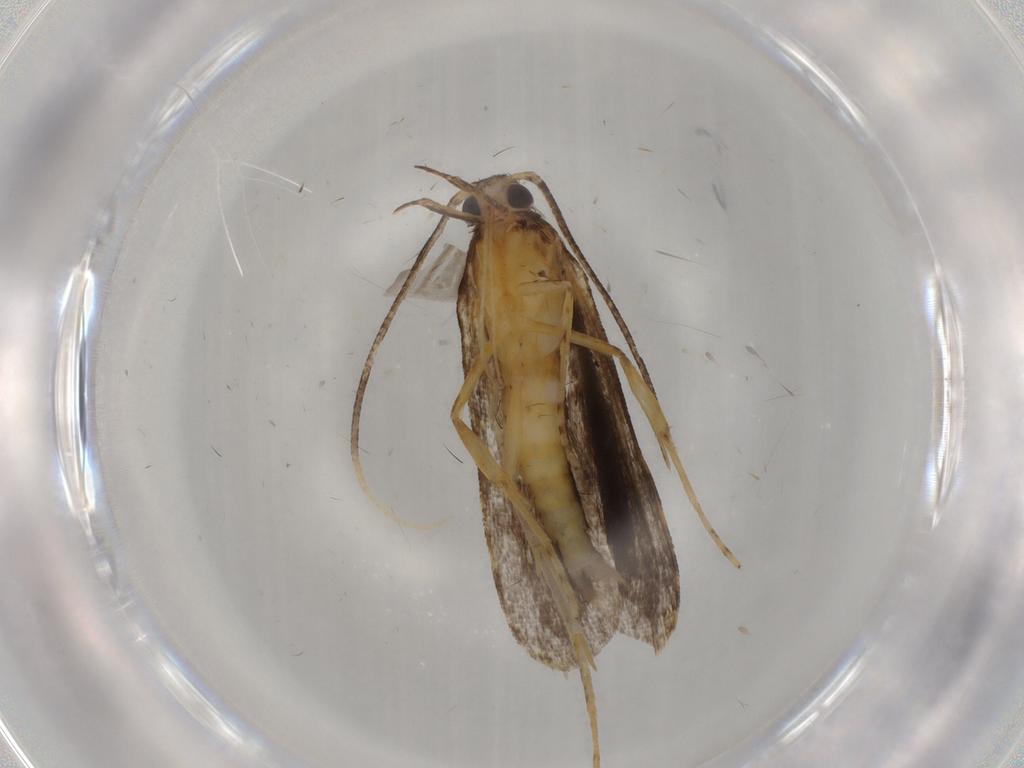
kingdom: Animalia
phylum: Arthropoda
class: Insecta
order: Lepidoptera
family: Cosmopterigidae
